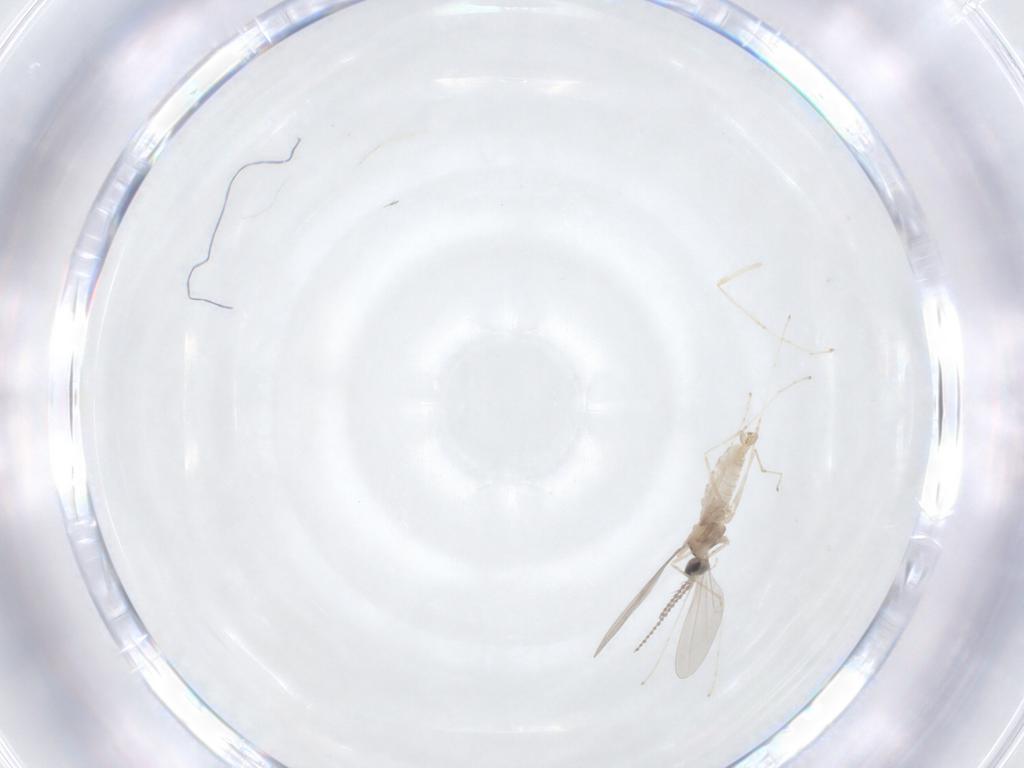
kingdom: Animalia
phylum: Arthropoda
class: Insecta
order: Diptera
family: Cecidomyiidae
